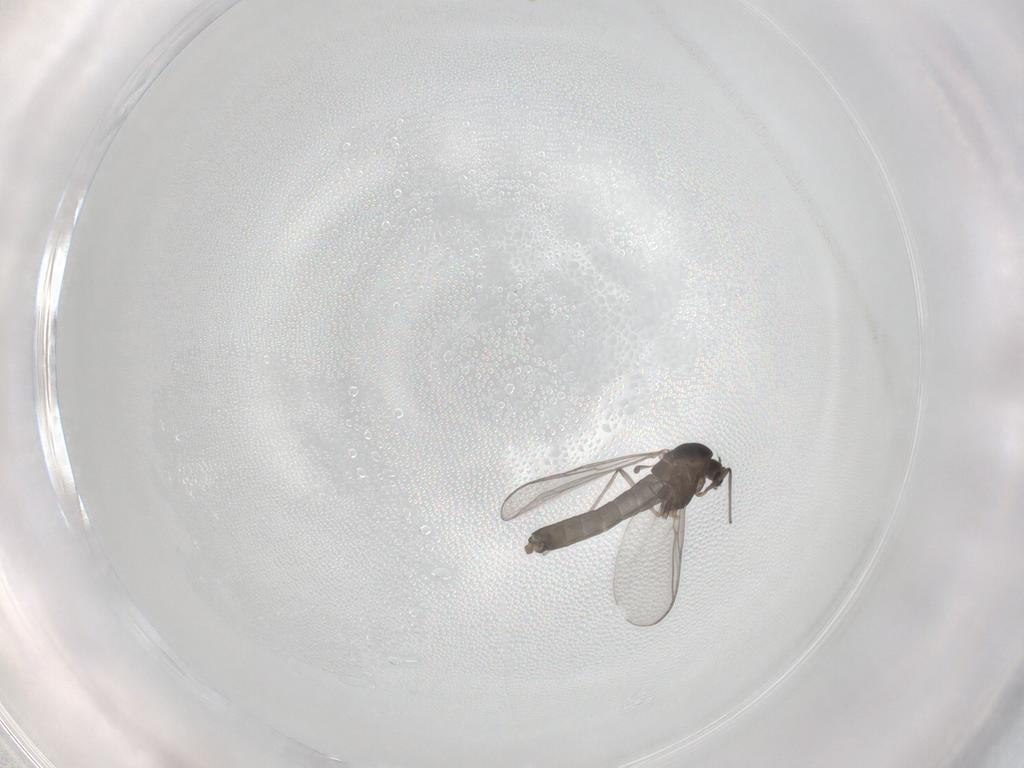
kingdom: Animalia
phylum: Arthropoda
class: Insecta
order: Diptera
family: Chironomidae
